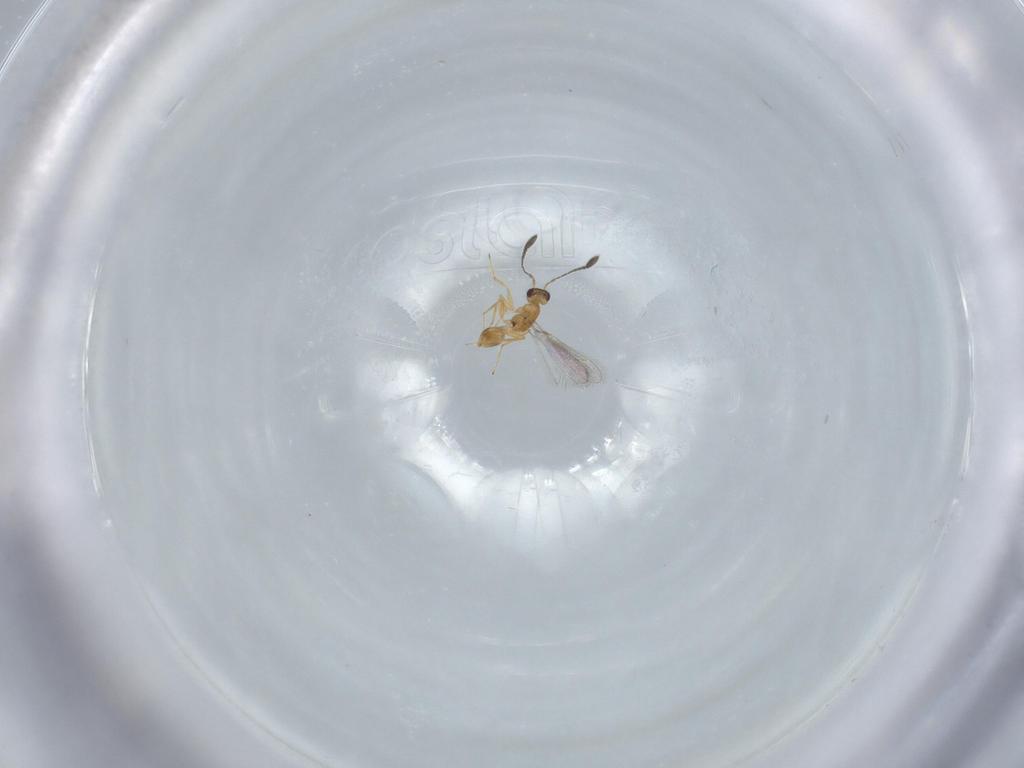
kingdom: Animalia
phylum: Arthropoda
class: Insecta
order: Hymenoptera
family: Mymaridae
